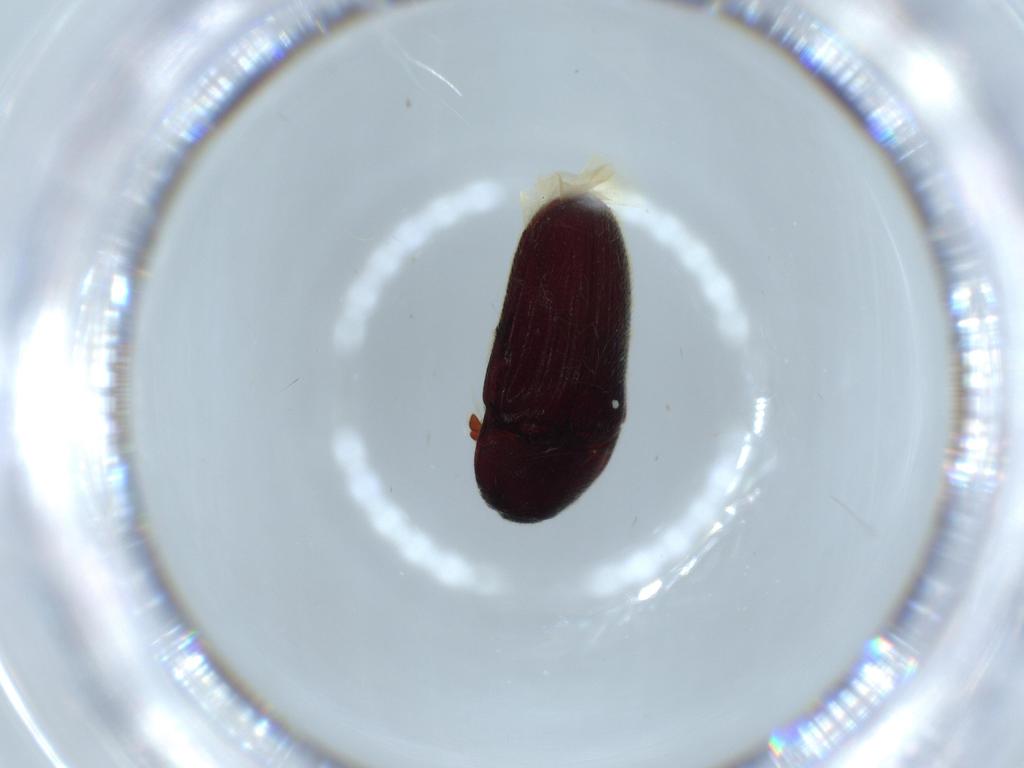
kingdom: Animalia
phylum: Arthropoda
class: Insecta
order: Coleoptera
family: Chrysomelidae
